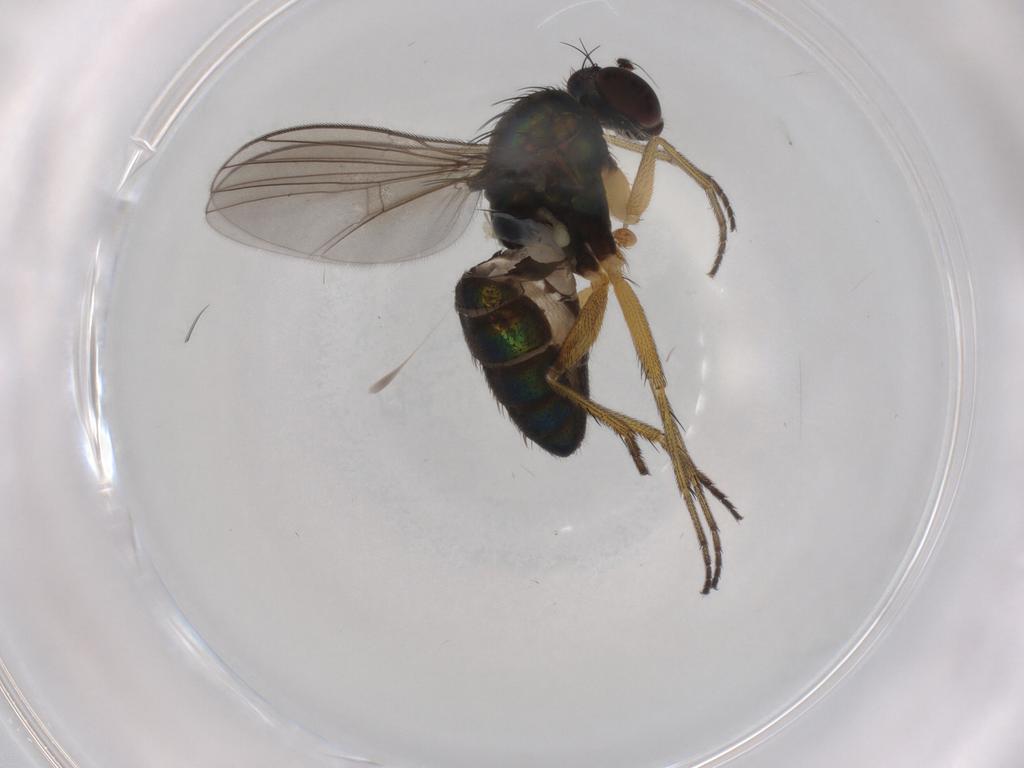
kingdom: Animalia
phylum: Arthropoda
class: Insecta
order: Diptera
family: Dolichopodidae
